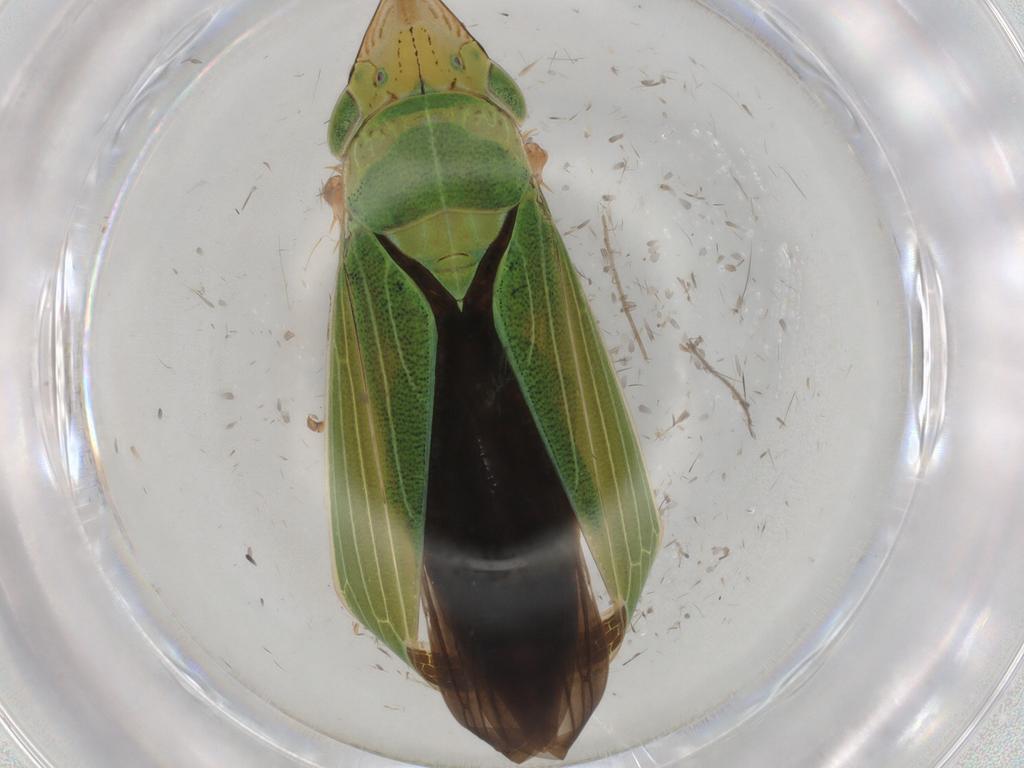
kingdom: Animalia
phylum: Arthropoda
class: Insecta
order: Hemiptera
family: Cicadellidae
